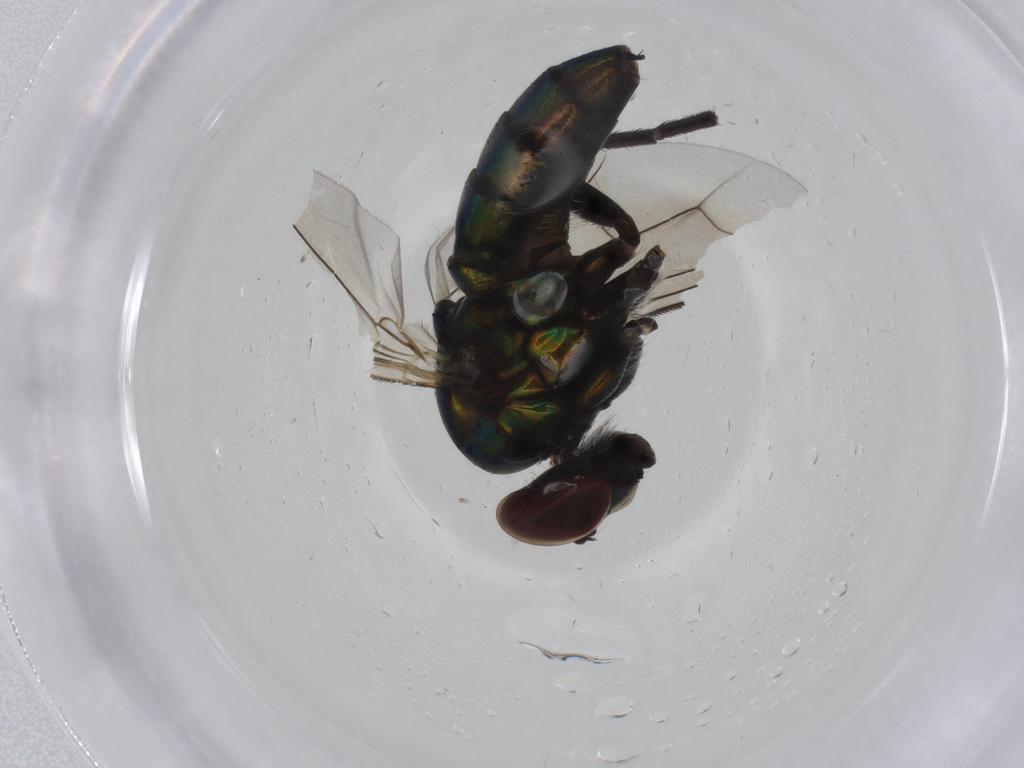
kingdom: Animalia
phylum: Arthropoda
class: Insecta
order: Diptera
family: Dolichopodidae
